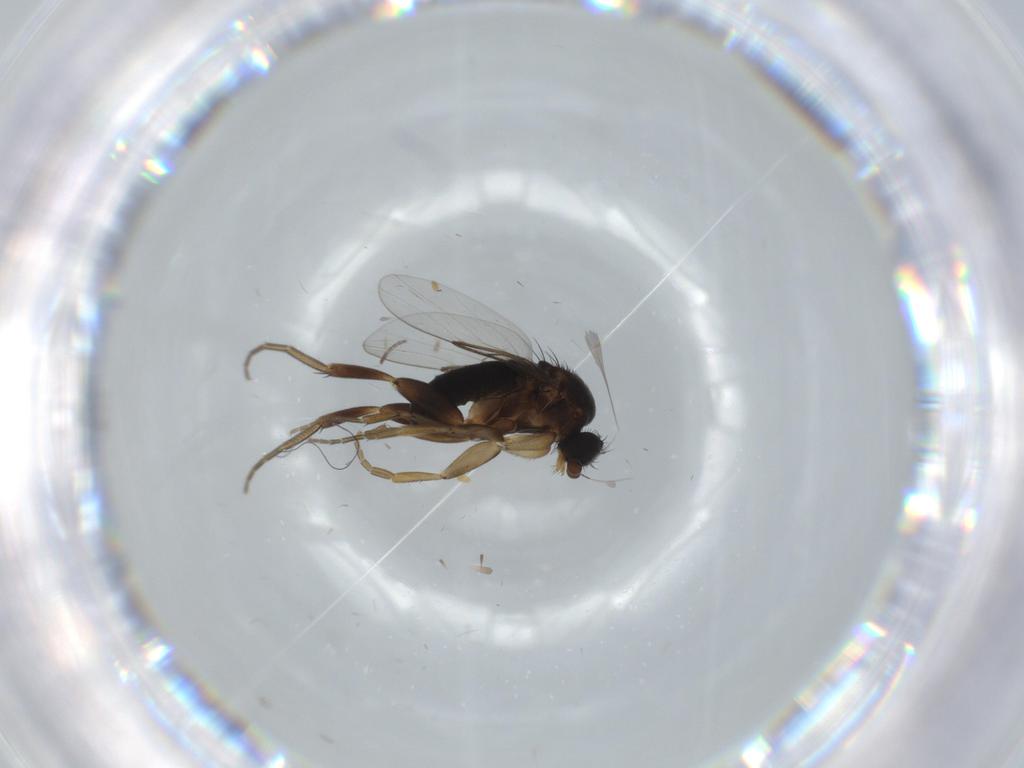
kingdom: Animalia
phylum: Arthropoda
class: Insecta
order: Diptera
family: Phoridae
